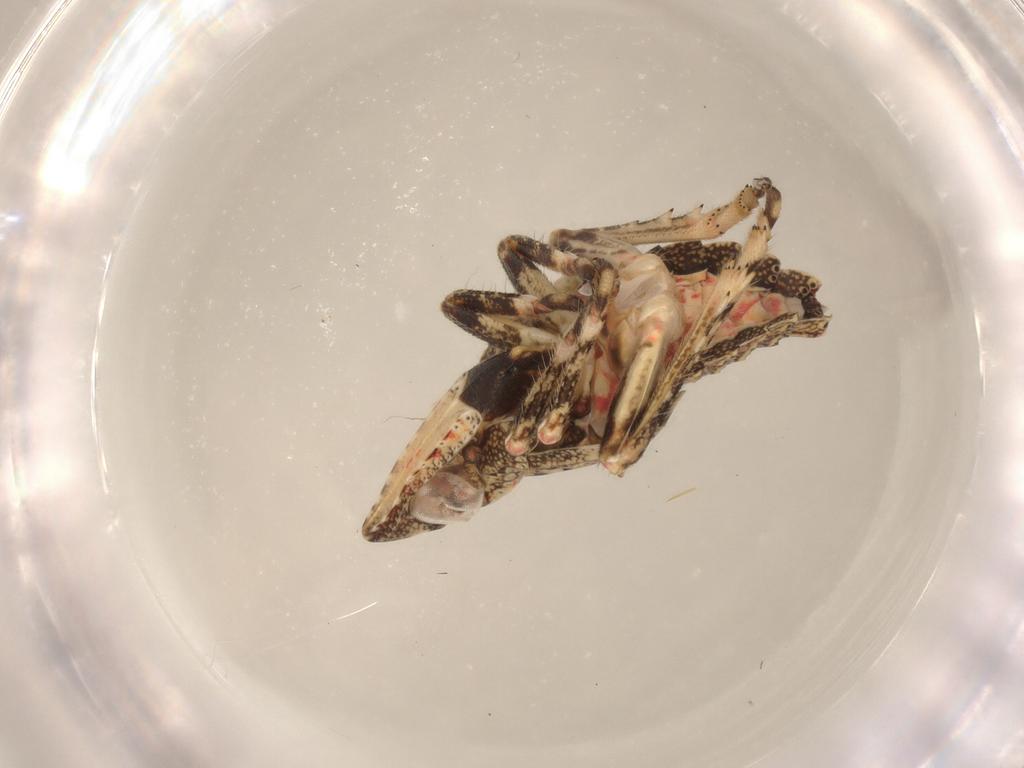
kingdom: Animalia
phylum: Arthropoda
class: Insecta
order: Hemiptera
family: Tropiduchidae
